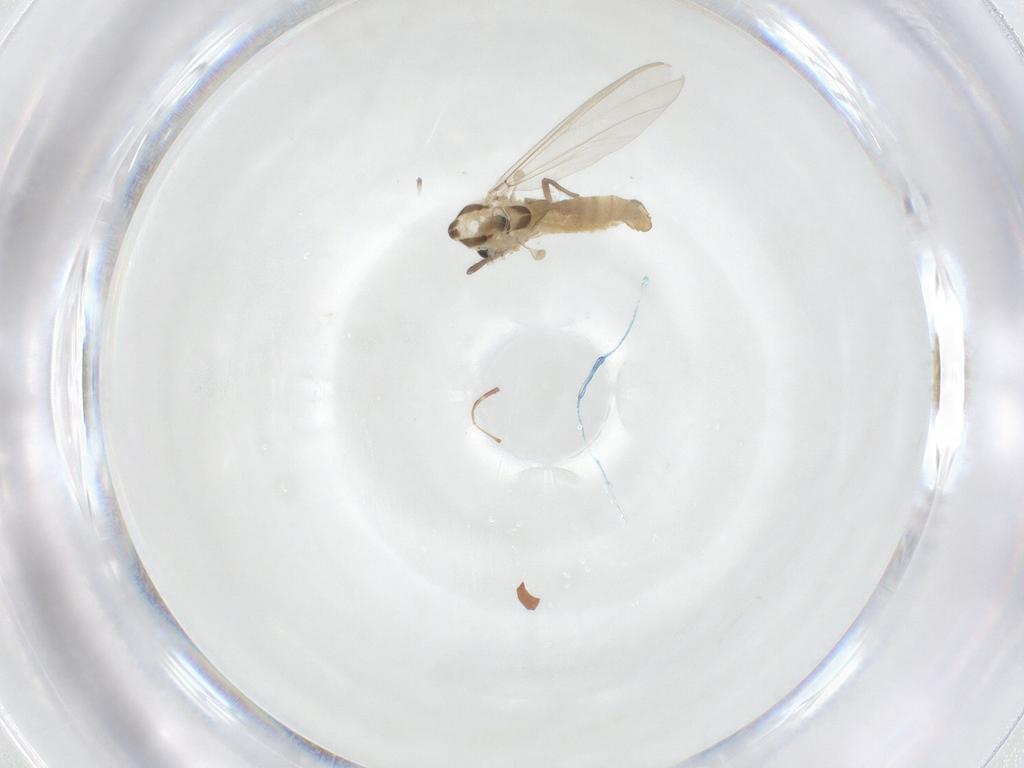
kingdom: Animalia
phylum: Arthropoda
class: Insecta
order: Diptera
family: Chironomidae
